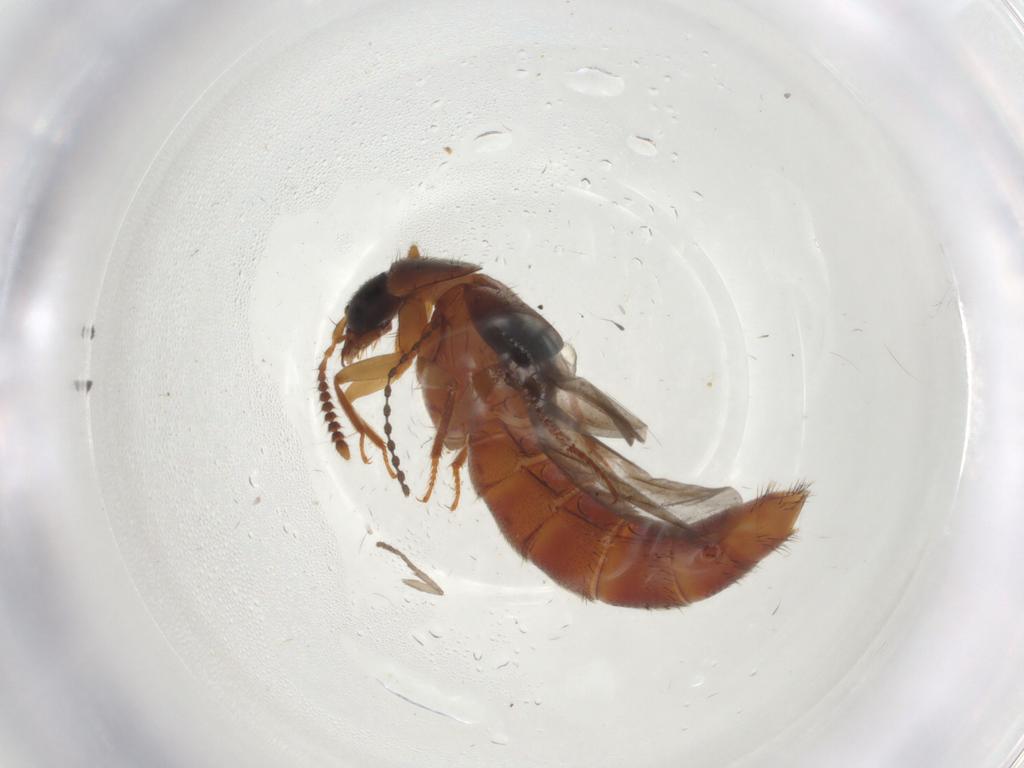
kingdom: Animalia
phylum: Arthropoda
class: Insecta
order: Coleoptera
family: Staphylinidae
